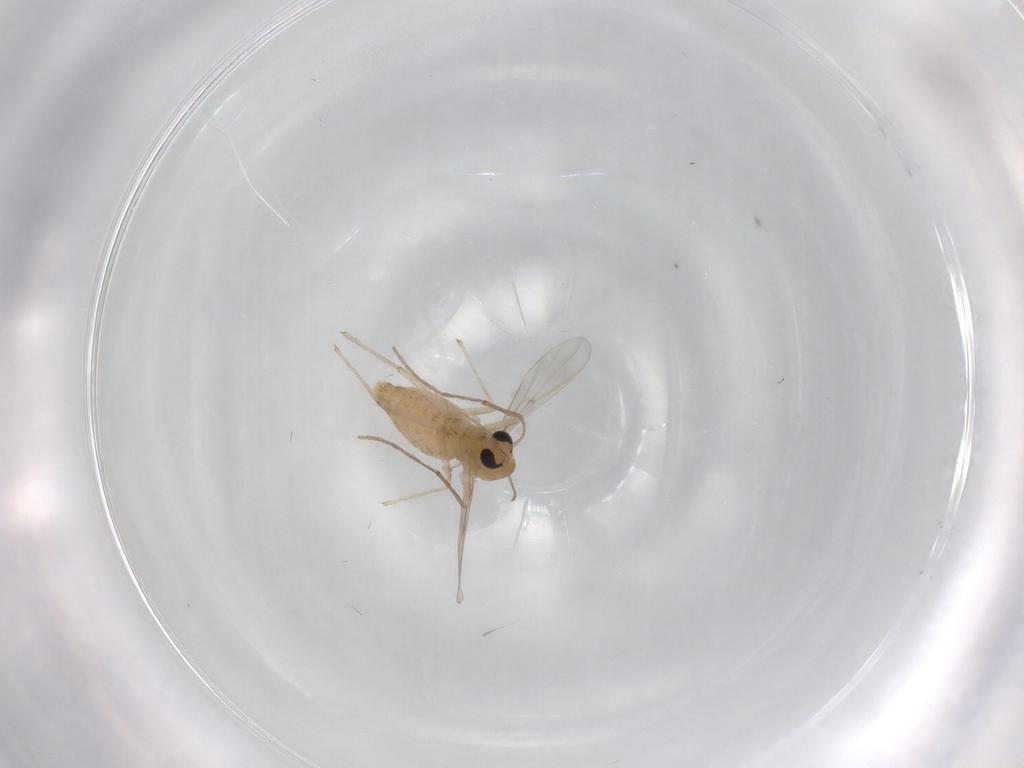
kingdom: Animalia
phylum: Arthropoda
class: Insecta
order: Diptera
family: Chironomidae
